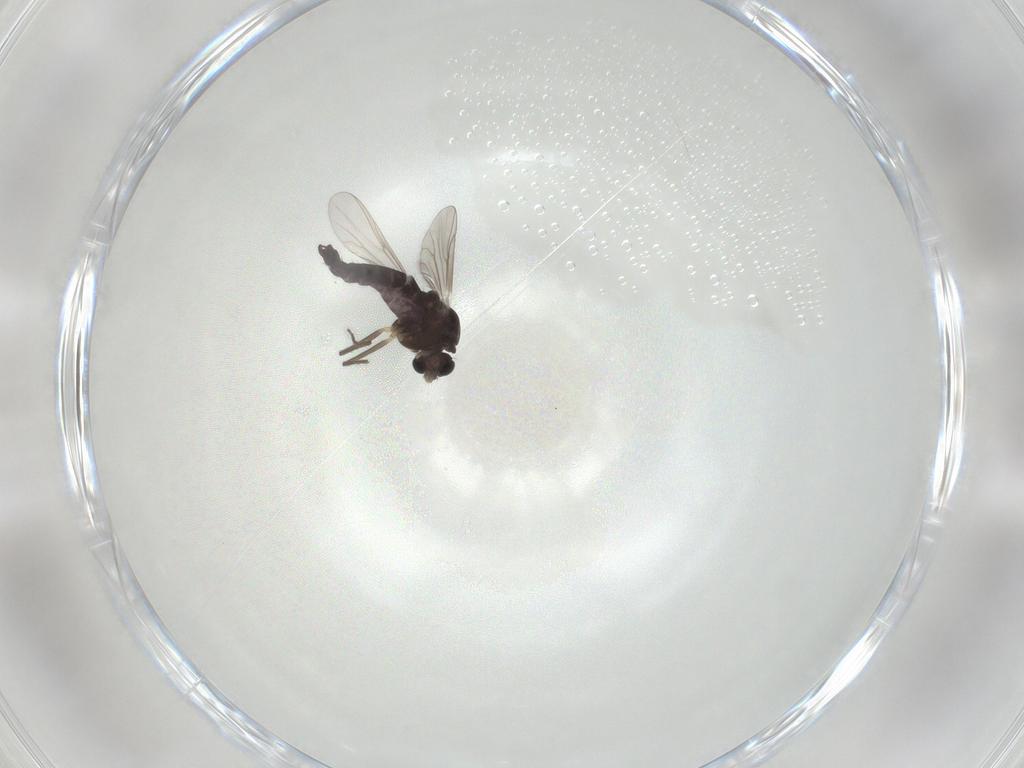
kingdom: Animalia
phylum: Arthropoda
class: Insecta
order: Diptera
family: Chironomidae
